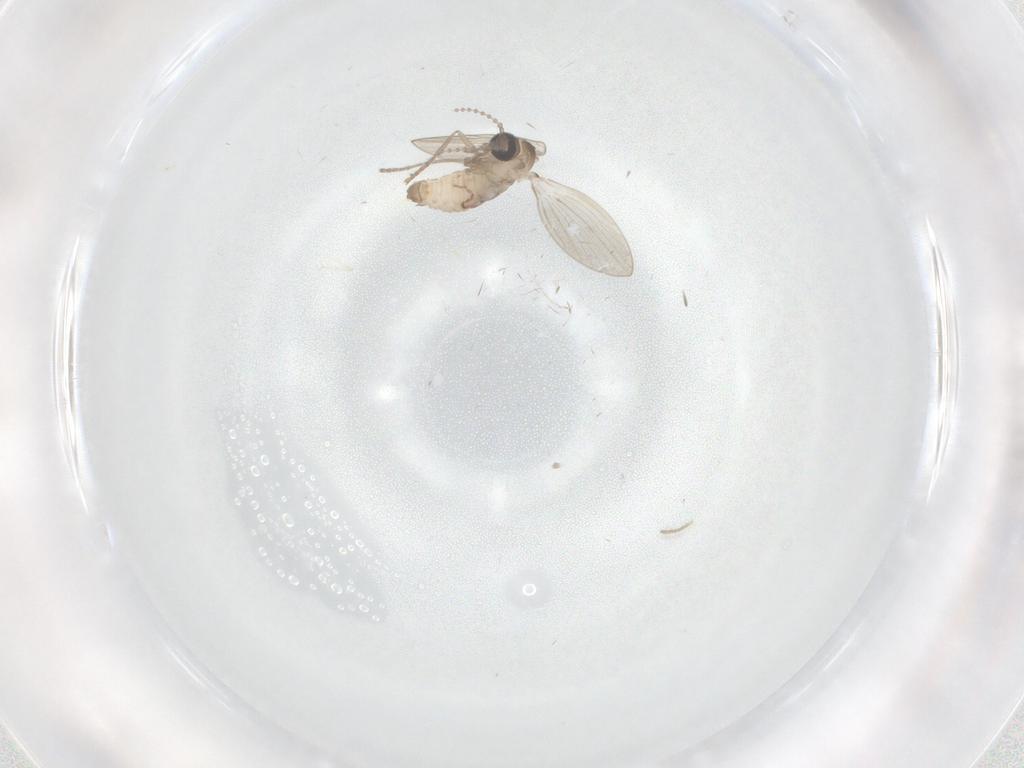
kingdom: Animalia
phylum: Arthropoda
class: Insecta
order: Diptera
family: Psychodidae
